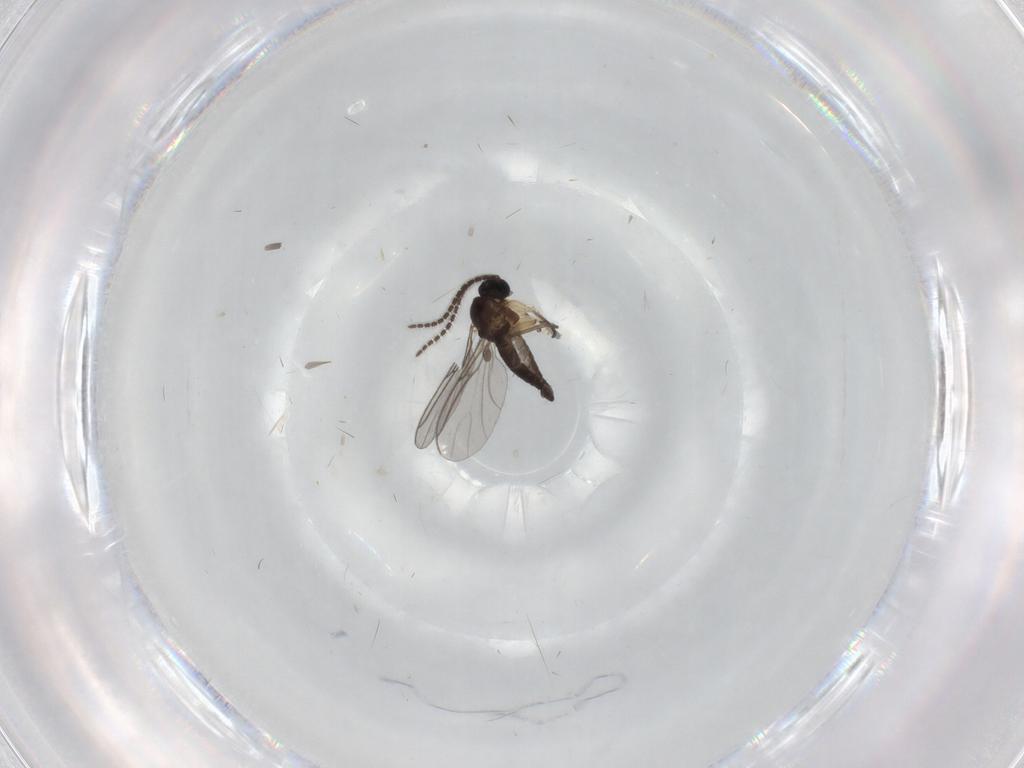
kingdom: Animalia
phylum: Arthropoda
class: Insecta
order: Diptera
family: Sciaridae
